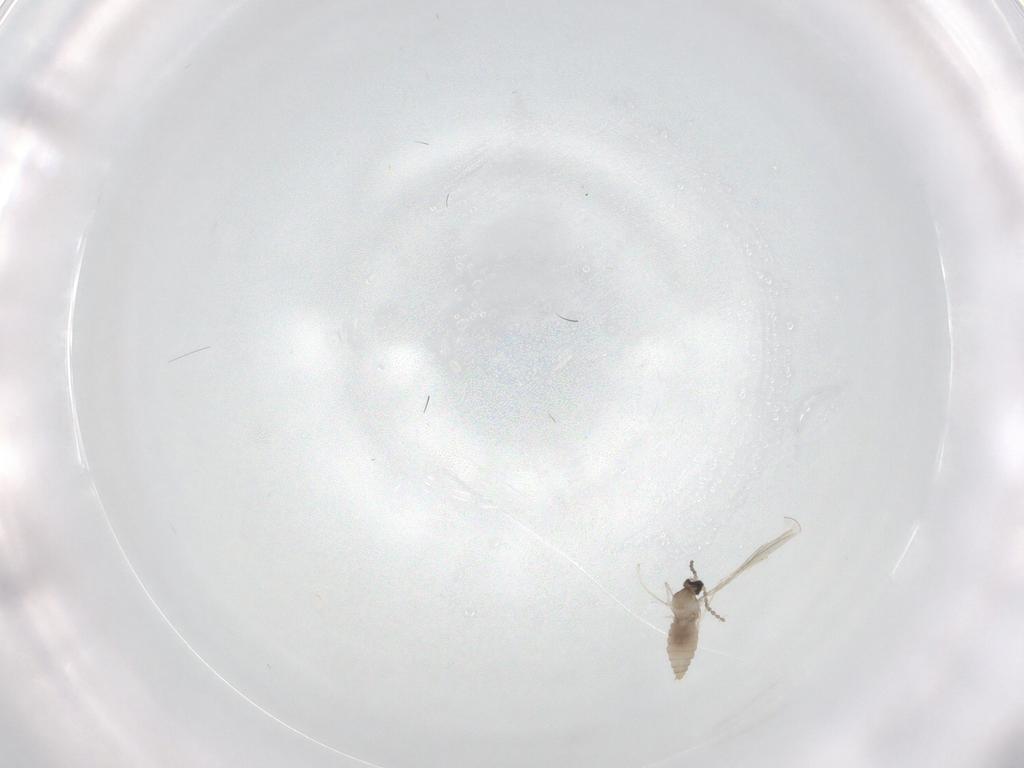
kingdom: Animalia
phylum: Arthropoda
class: Insecta
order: Diptera
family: Cecidomyiidae
